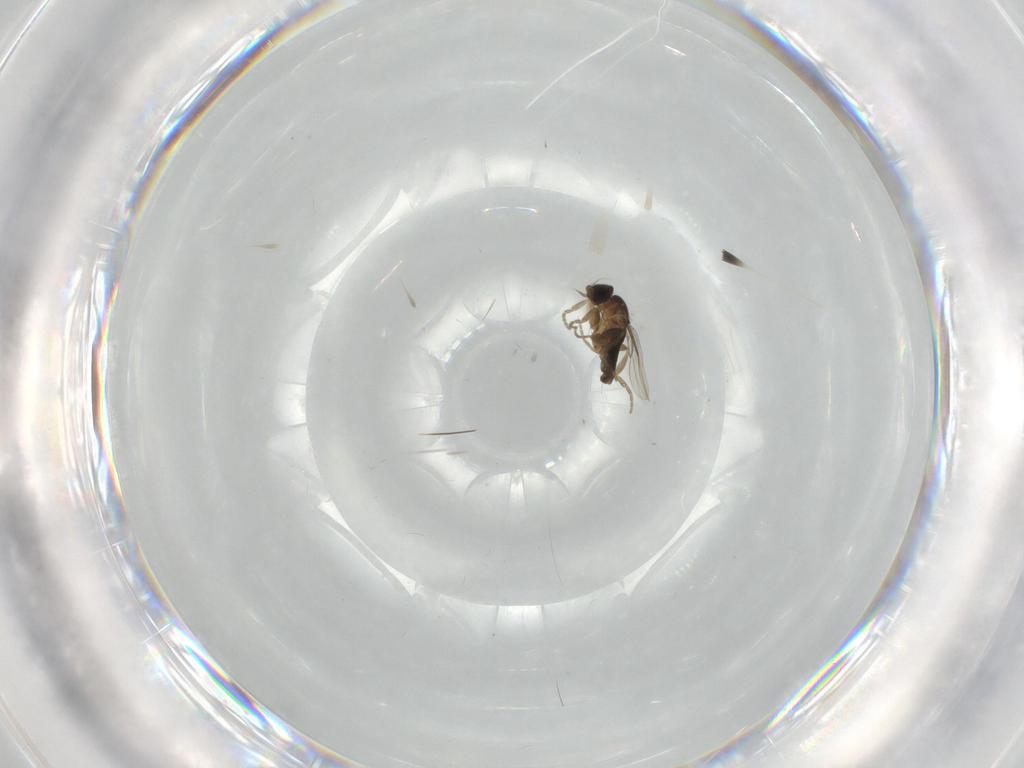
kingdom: Animalia
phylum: Arthropoda
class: Insecta
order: Diptera
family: Phoridae
